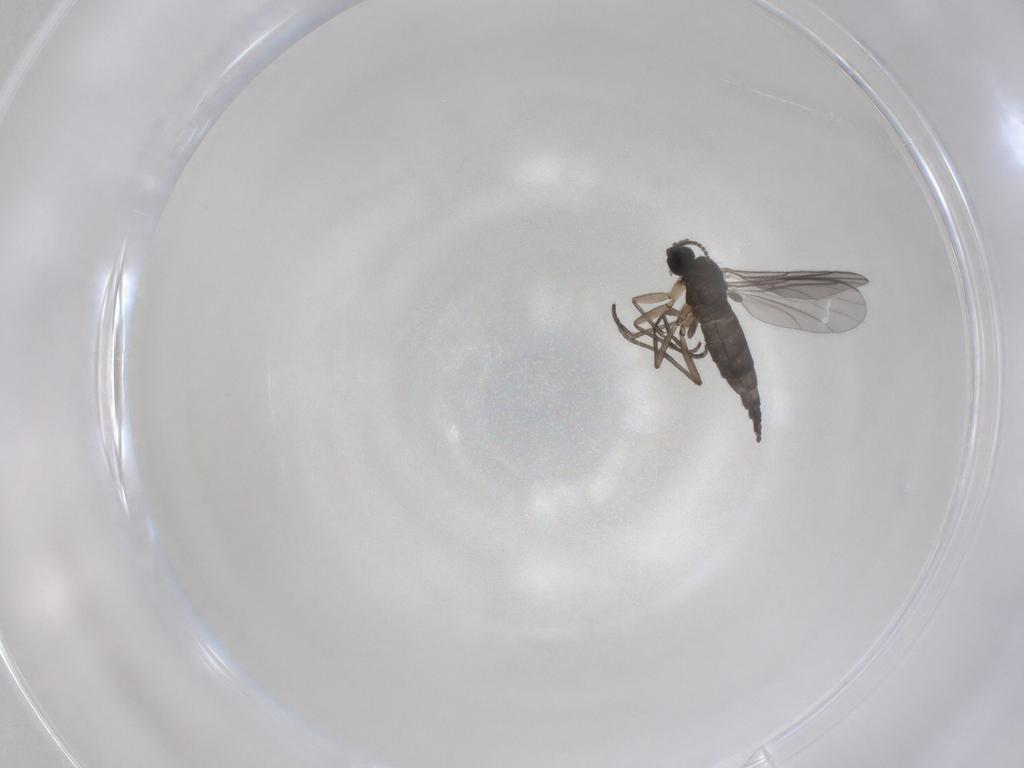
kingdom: Animalia
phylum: Arthropoda
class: Insecta
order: Diptera
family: Sciaridae
